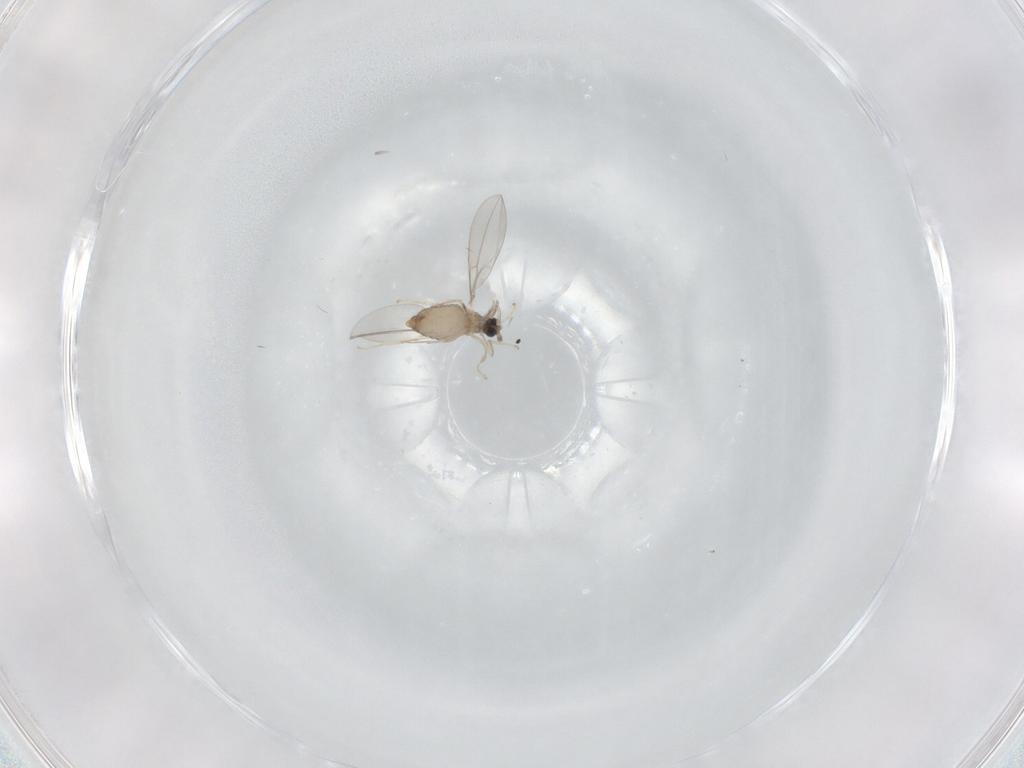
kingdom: Animalia
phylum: Arthropoda
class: Insecta
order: Diptera
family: Cecidomyiidae
